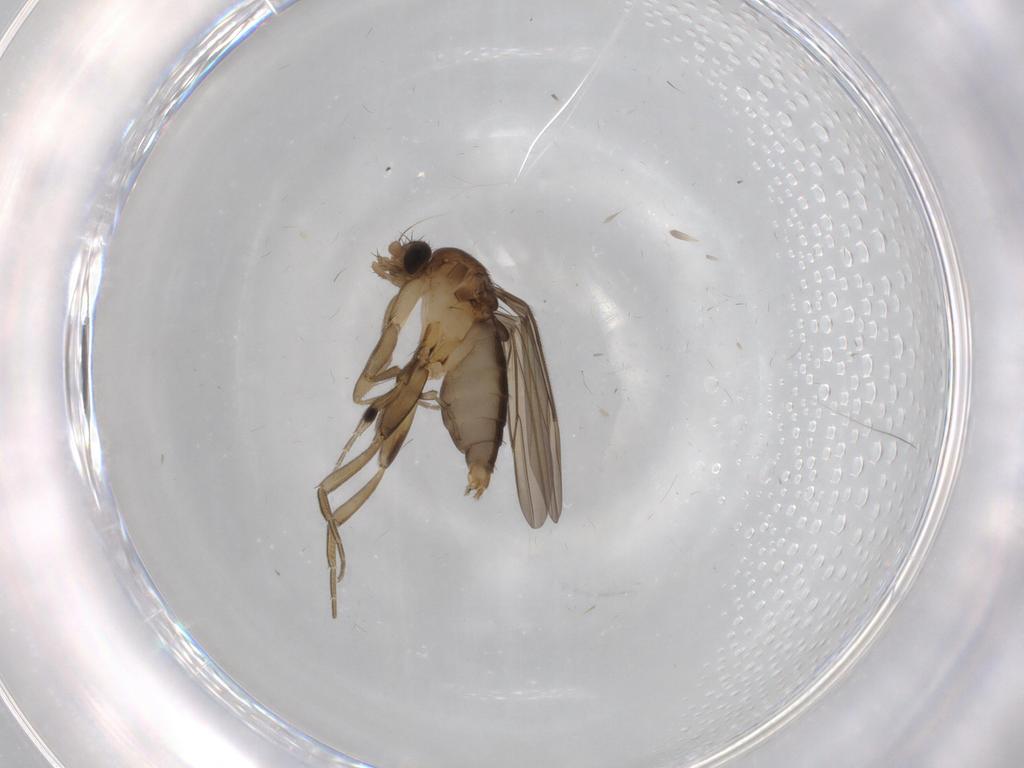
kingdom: Animalia
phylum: Arthropoda
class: Insecta
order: Diptera
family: Phoridae
